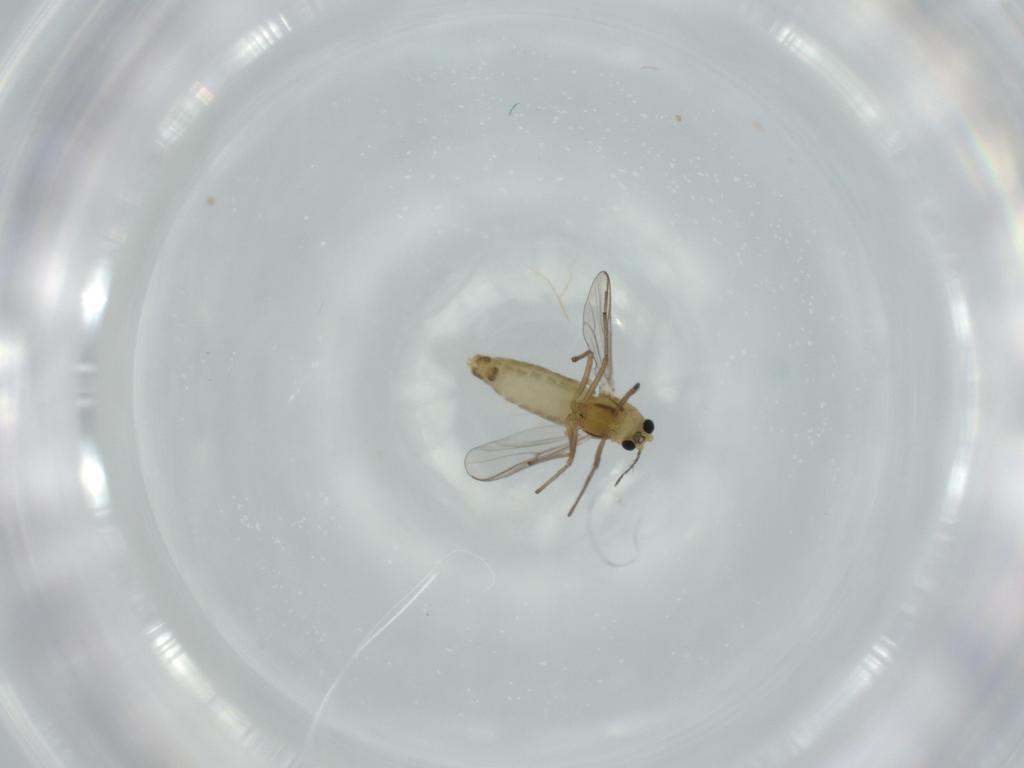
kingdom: Animalia
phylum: Arthropoda
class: Insecta
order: Diptera
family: Chironomidae
